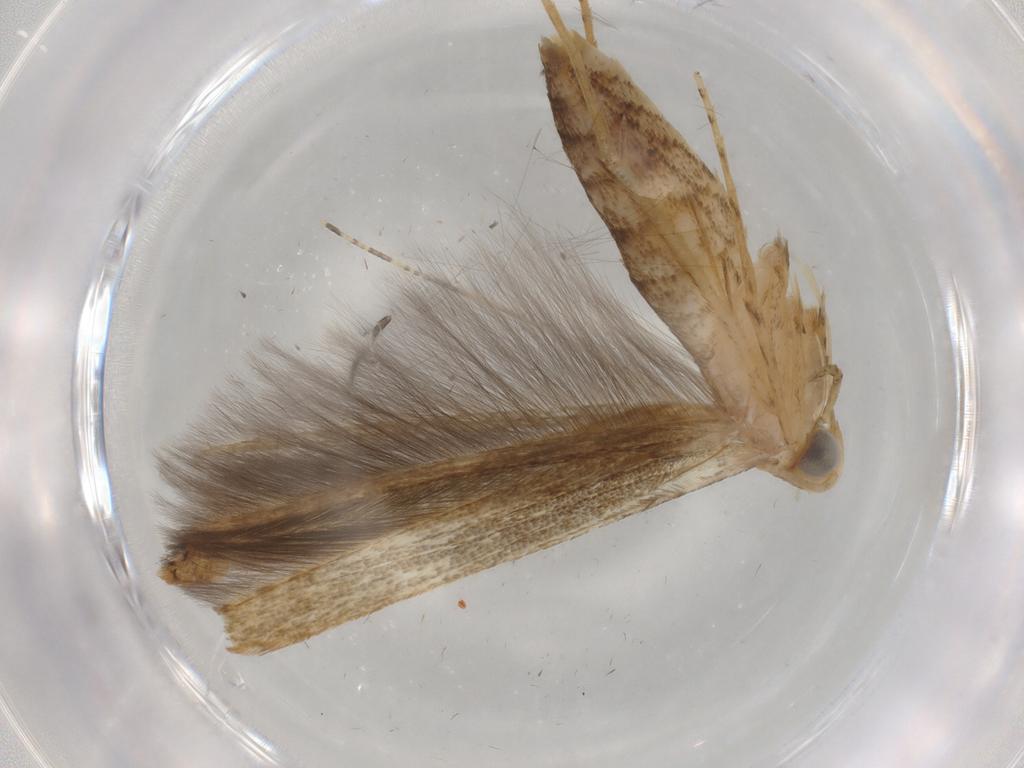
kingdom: Animalia
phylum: Arthropoda
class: Insecta
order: Lepidoptera
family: Batrachedridae
